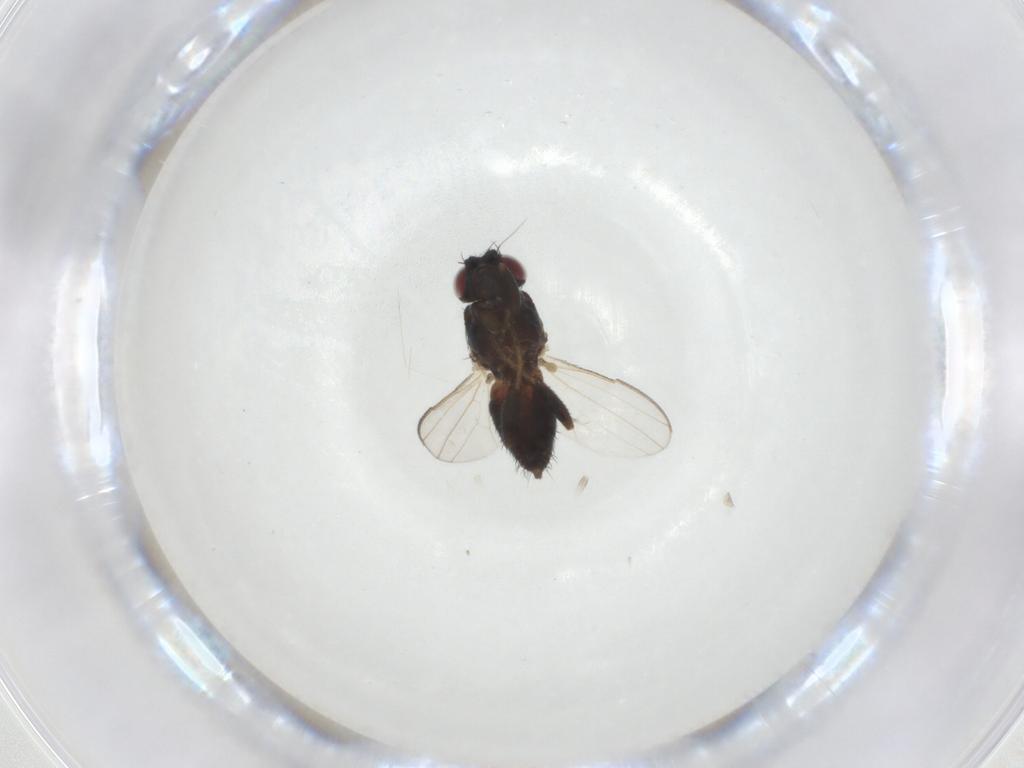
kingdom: Animalia
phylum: Arthropoda
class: Insecta
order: Diptera
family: Milichiidae
